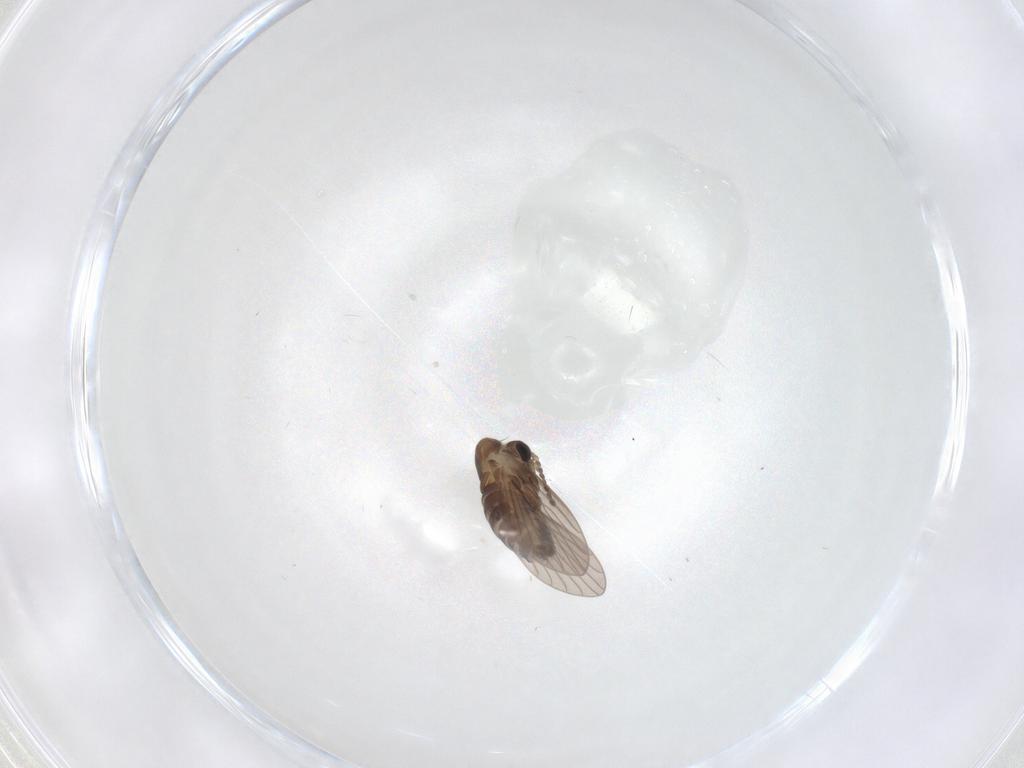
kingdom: Animalia
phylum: Arthropoda
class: Insecta
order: Diptera
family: Psychodidae
